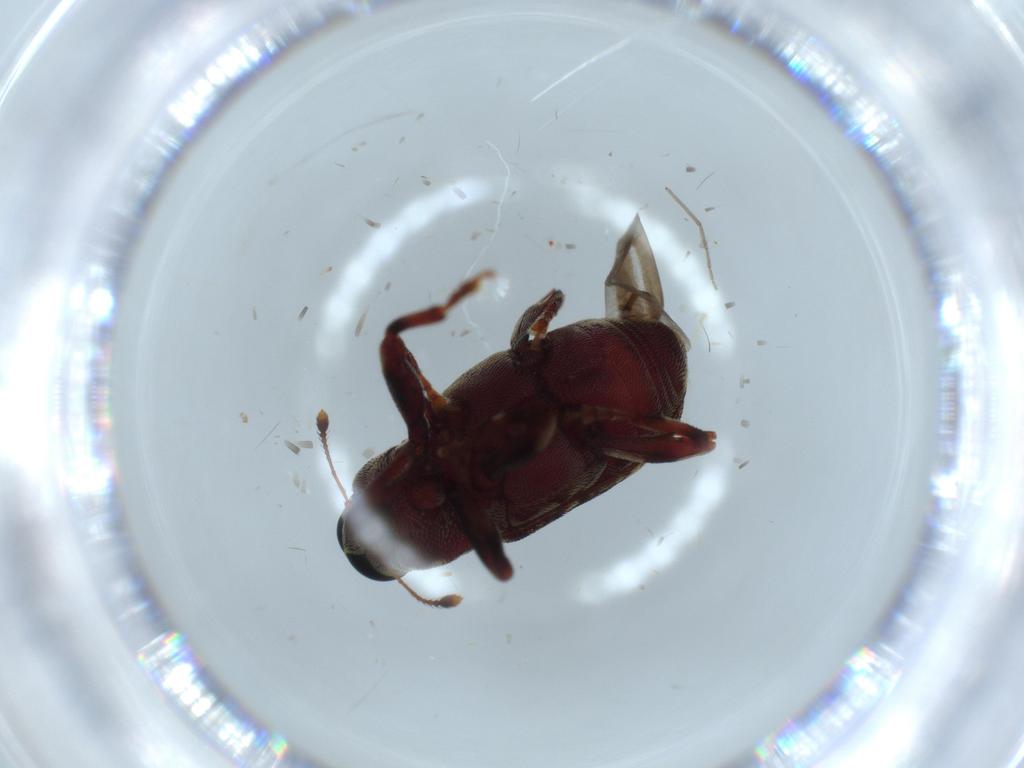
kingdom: Animalia
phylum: Arthropoda
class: Insecta
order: Coleoptera
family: Curculionidae
